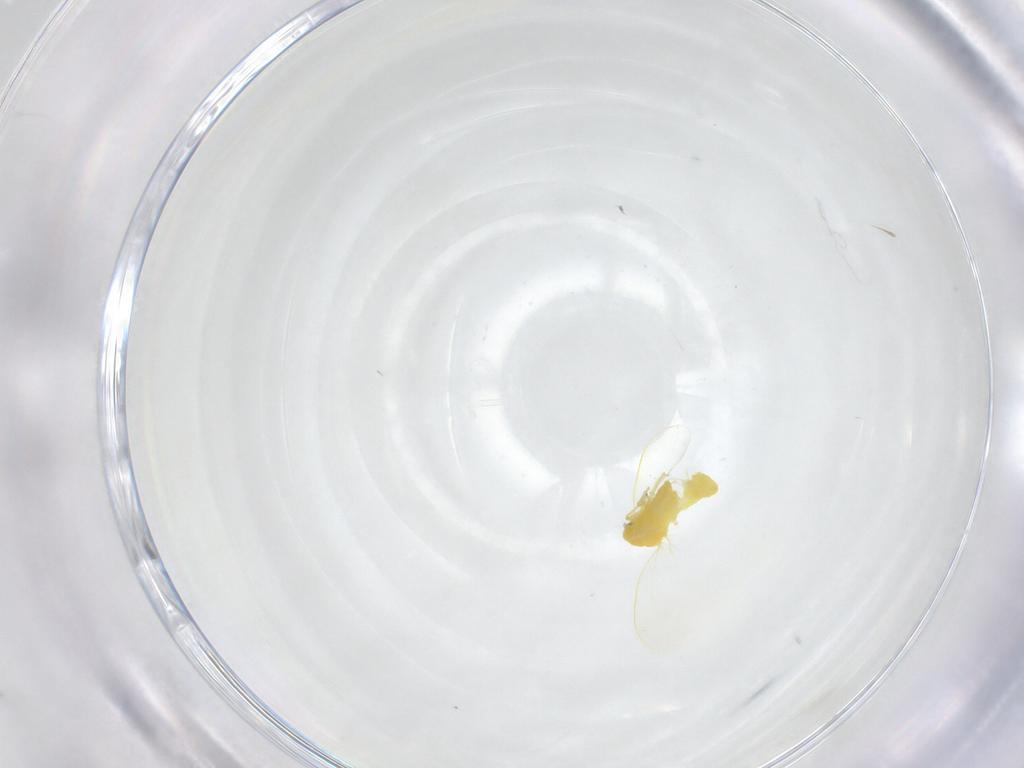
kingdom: Animalia
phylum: Arthropoda
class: Insecta
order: Hemiptera
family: Aleyrodidae
